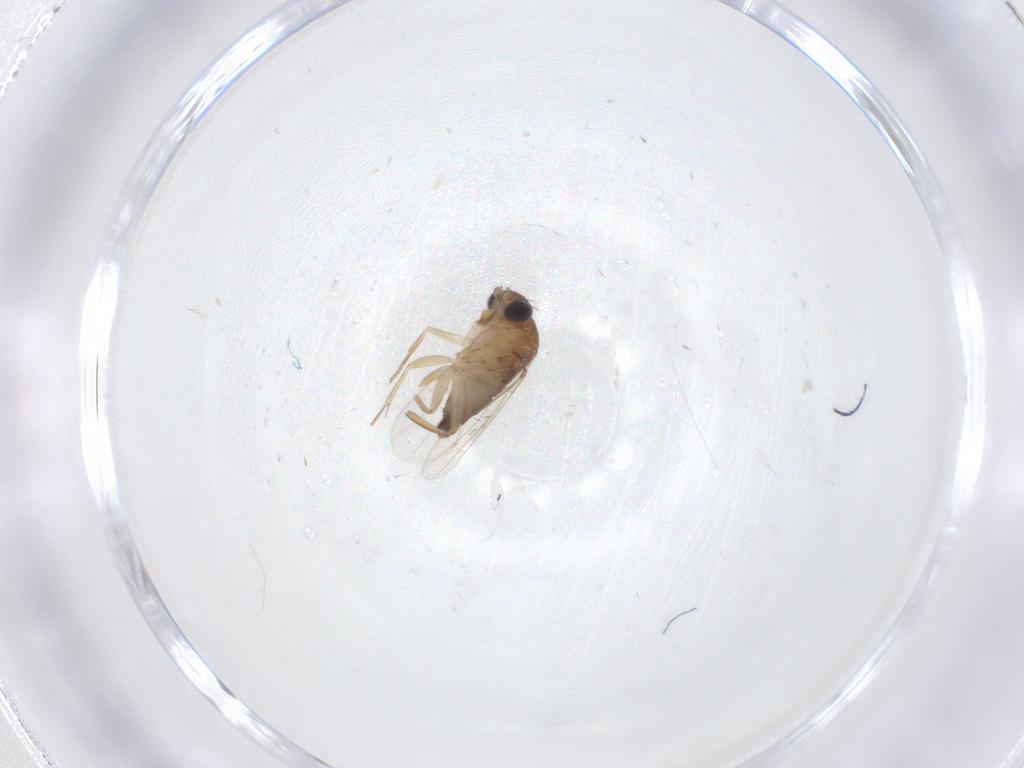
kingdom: Animalia
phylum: Arthropoda
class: Insecta
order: Diptera
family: Phoridae
